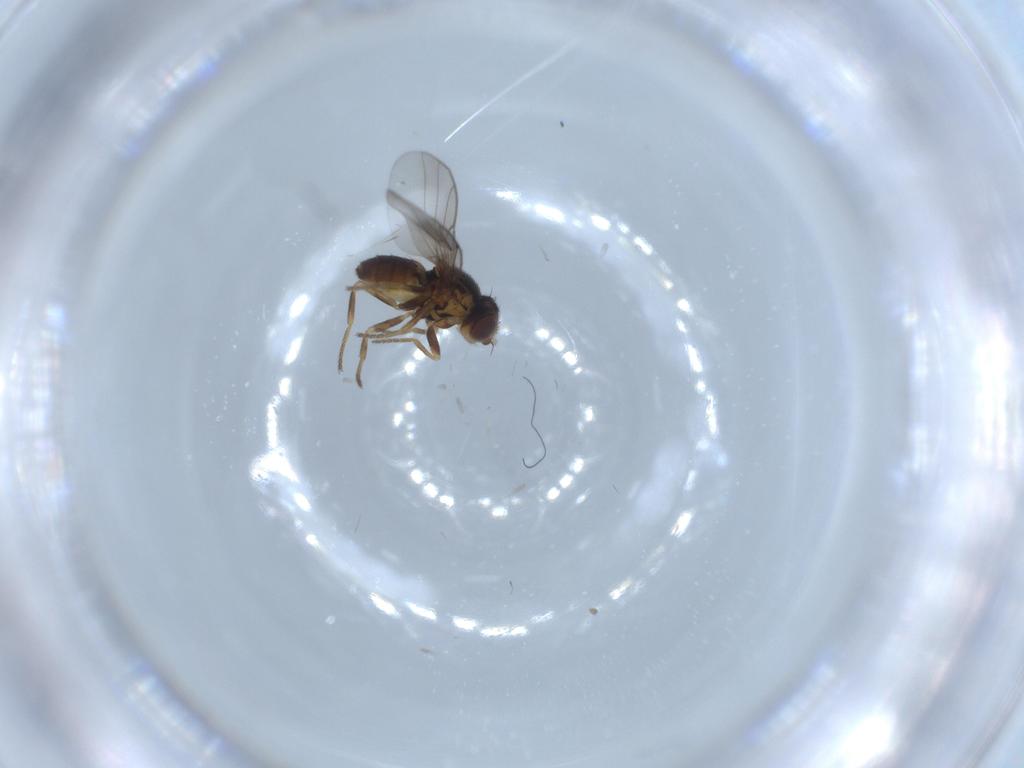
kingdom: Animalia
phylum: Arthropoda
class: Insecta
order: Diptera
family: Chloropidae
